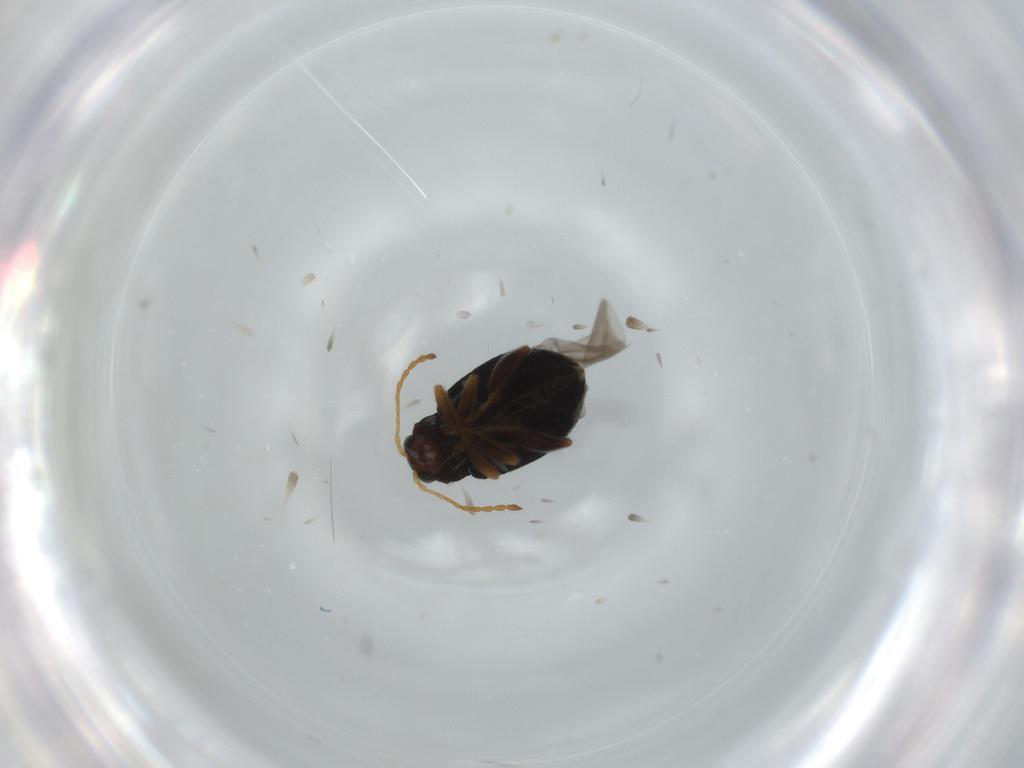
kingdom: Animalia
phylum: Arthropoda
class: Insecta
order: Coleoptera
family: Chrysomelidae
